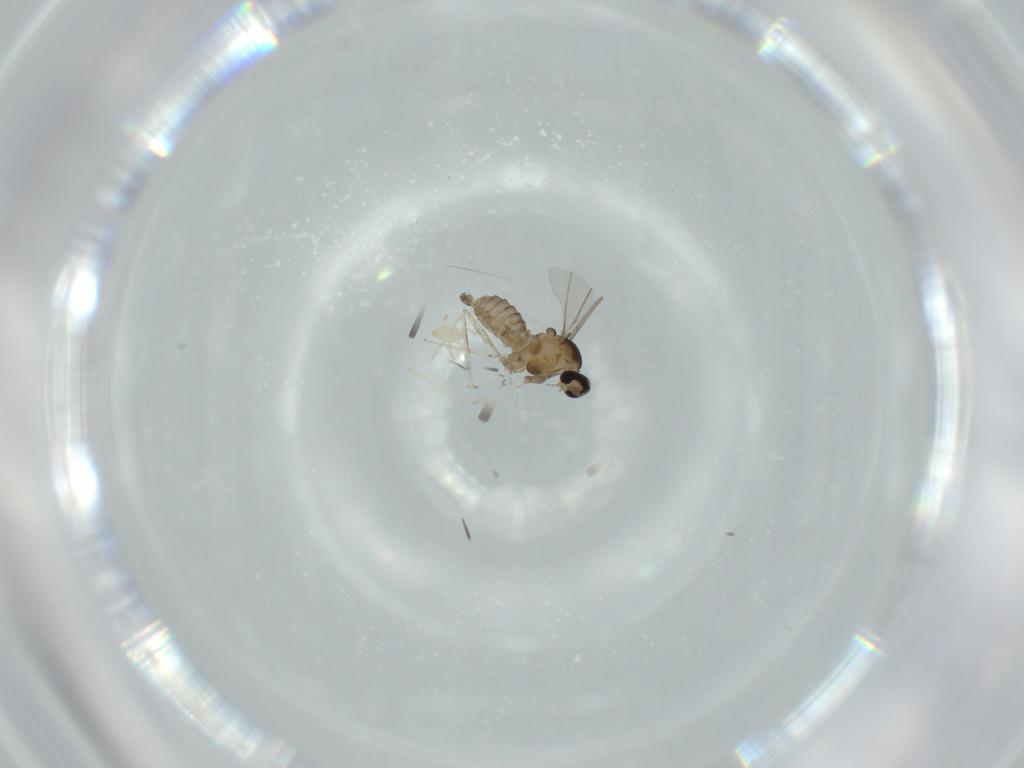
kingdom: Animalia
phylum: Arthropoda
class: Insecta
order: Diptera
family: Cecidomyiidae
